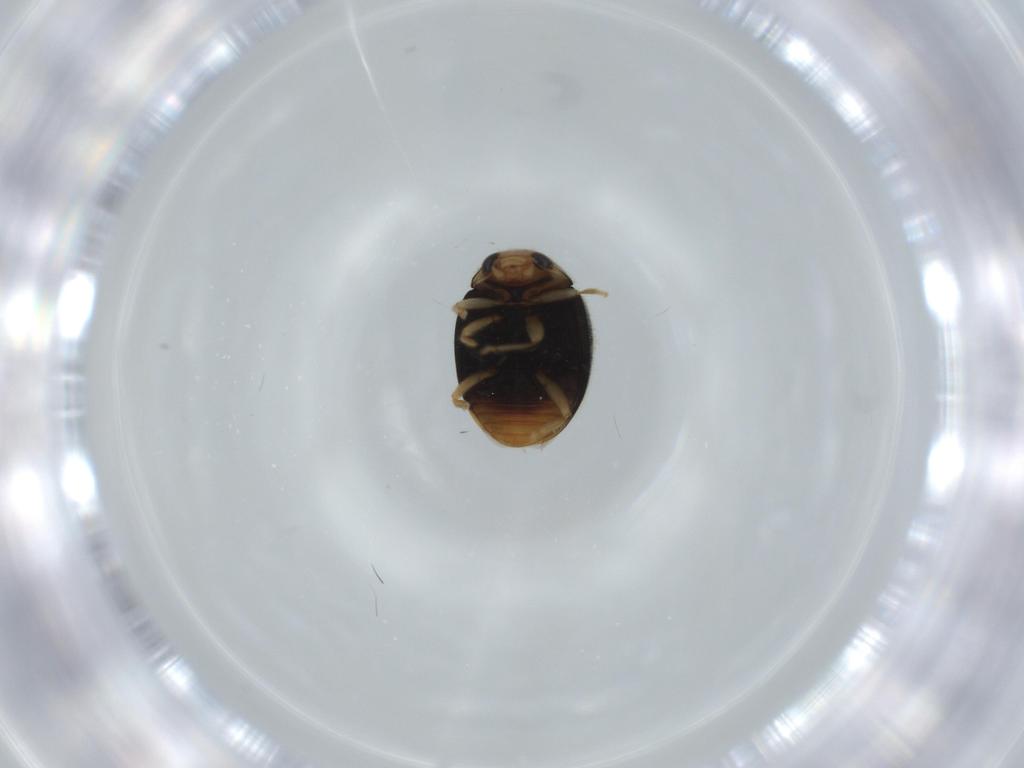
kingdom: Animalia
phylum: Arthropoda
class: Insecta
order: Coleoptera
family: Coccinellidae
